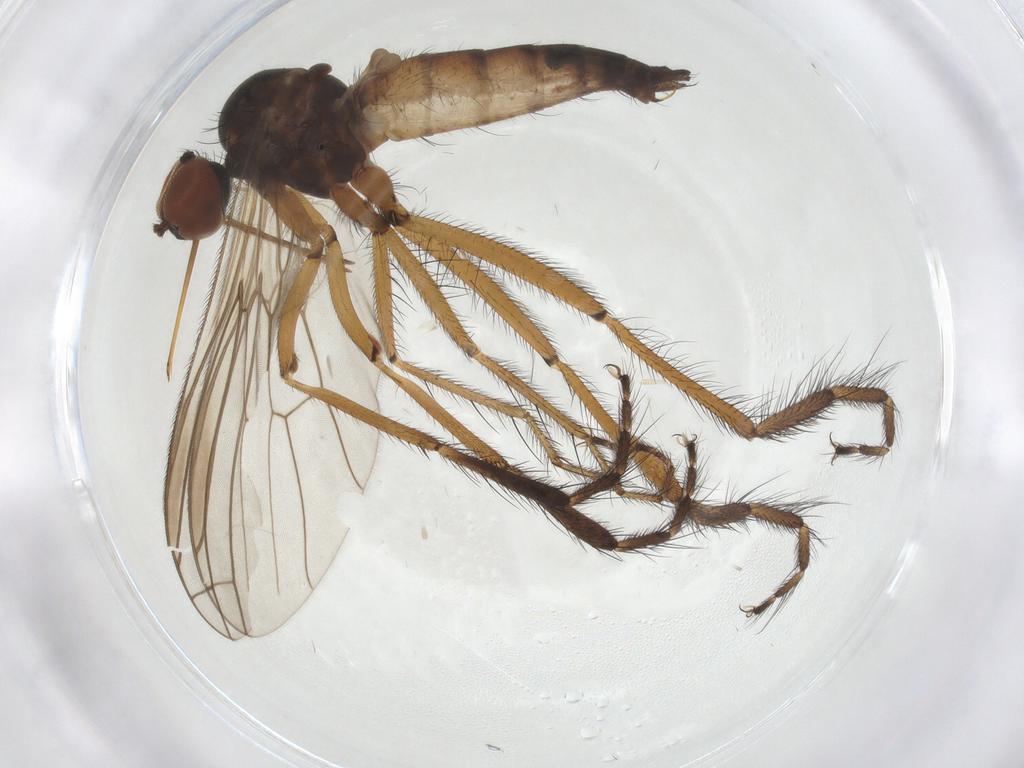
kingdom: Animalia
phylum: Arthropoda
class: Insecta
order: Diptera
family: Empididae
